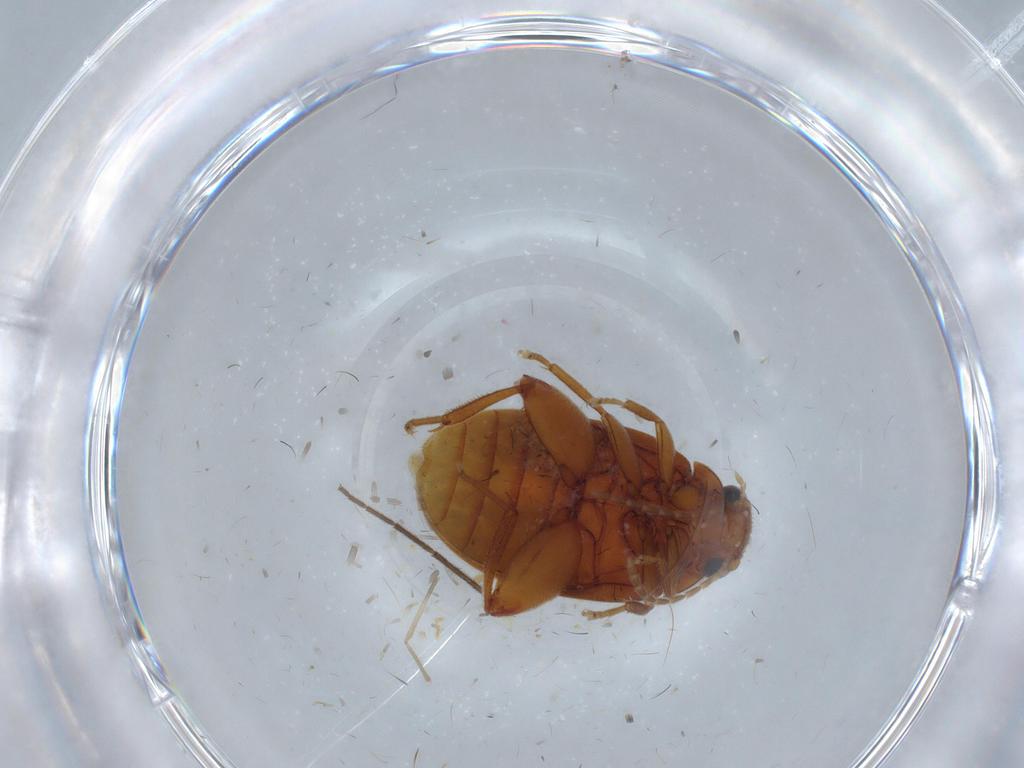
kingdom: Animalia
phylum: Arthropoda
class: Insecta
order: Coleoptera
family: Scirtidae
